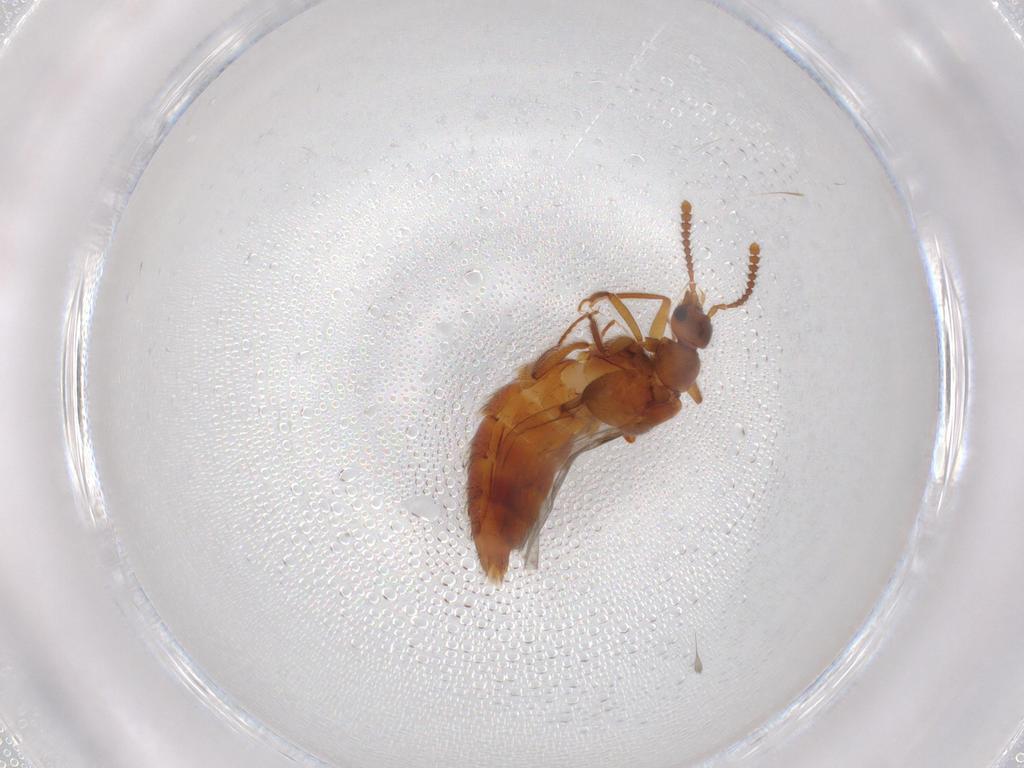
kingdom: Animalia
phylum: Arthropoda
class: Insecta
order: Coleoptera
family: Staphylinidae
